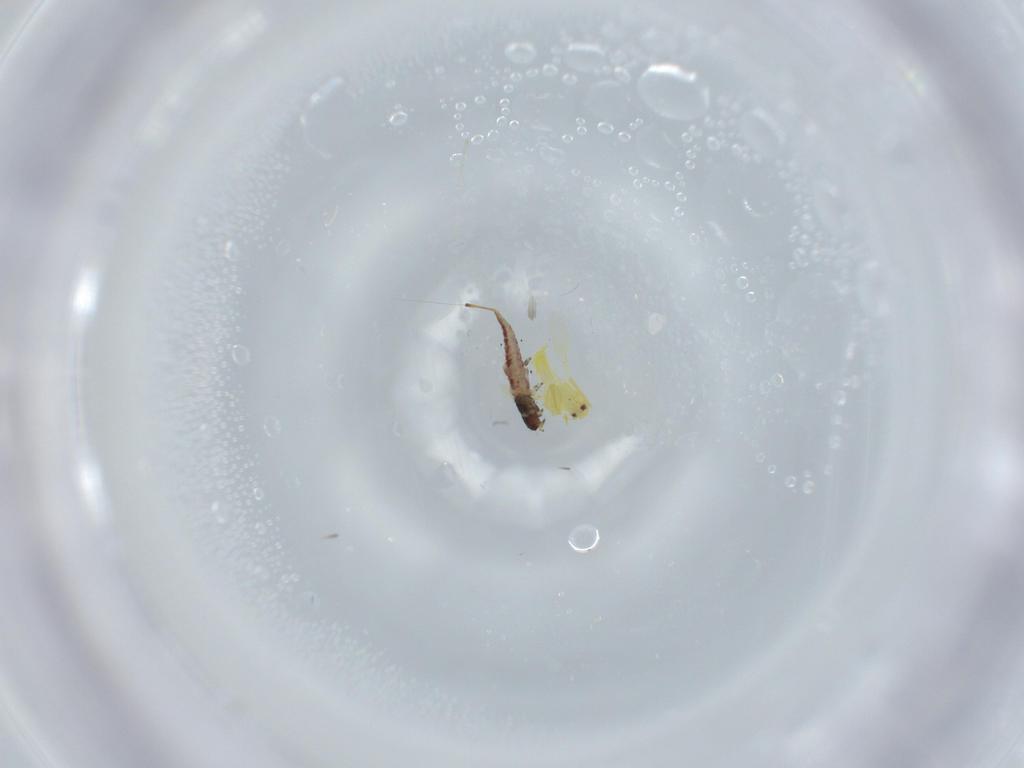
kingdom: Animalia
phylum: Arthropoda
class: Insecta
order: Hemiptera
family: Aleyrodidae
